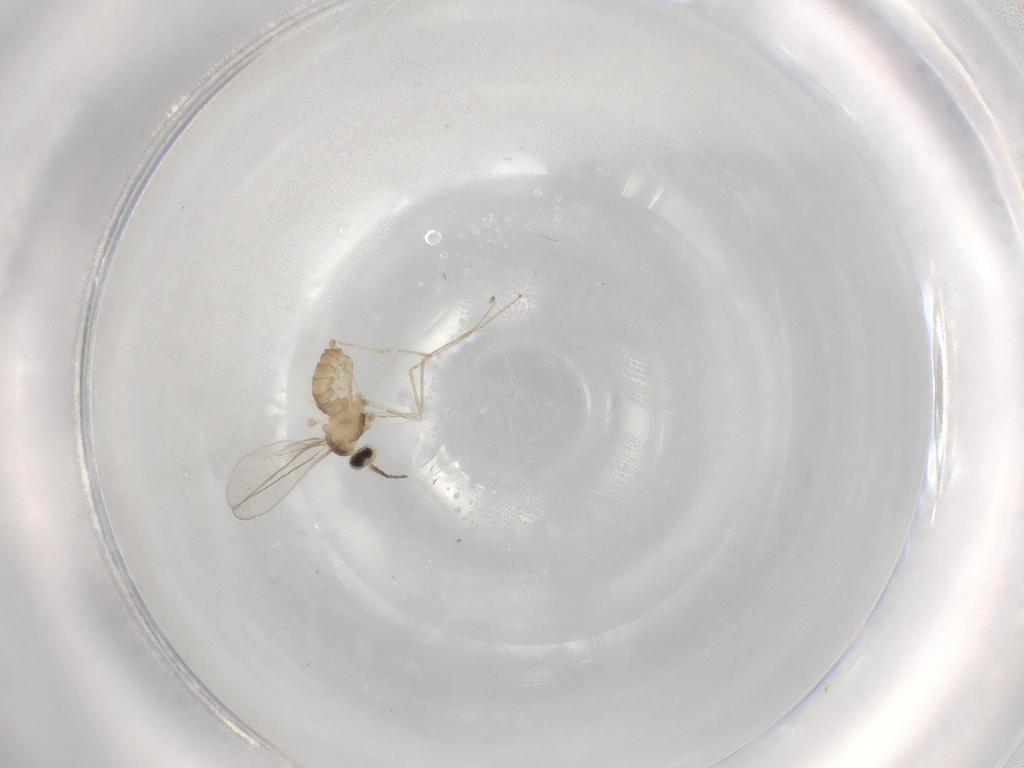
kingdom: Animalia
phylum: Arthropoda
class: Insecta
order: Diptera
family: Cecidomyiidae
